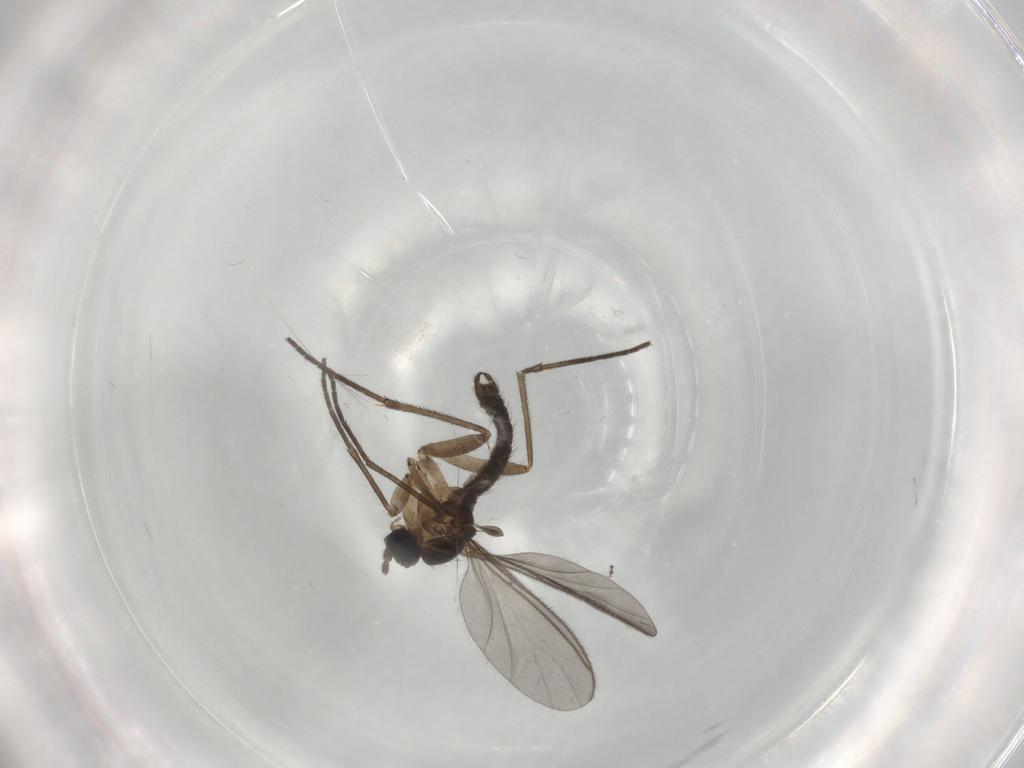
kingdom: Animalia
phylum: Arthropoda
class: Insecta
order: Diptera
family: Sciaridae
